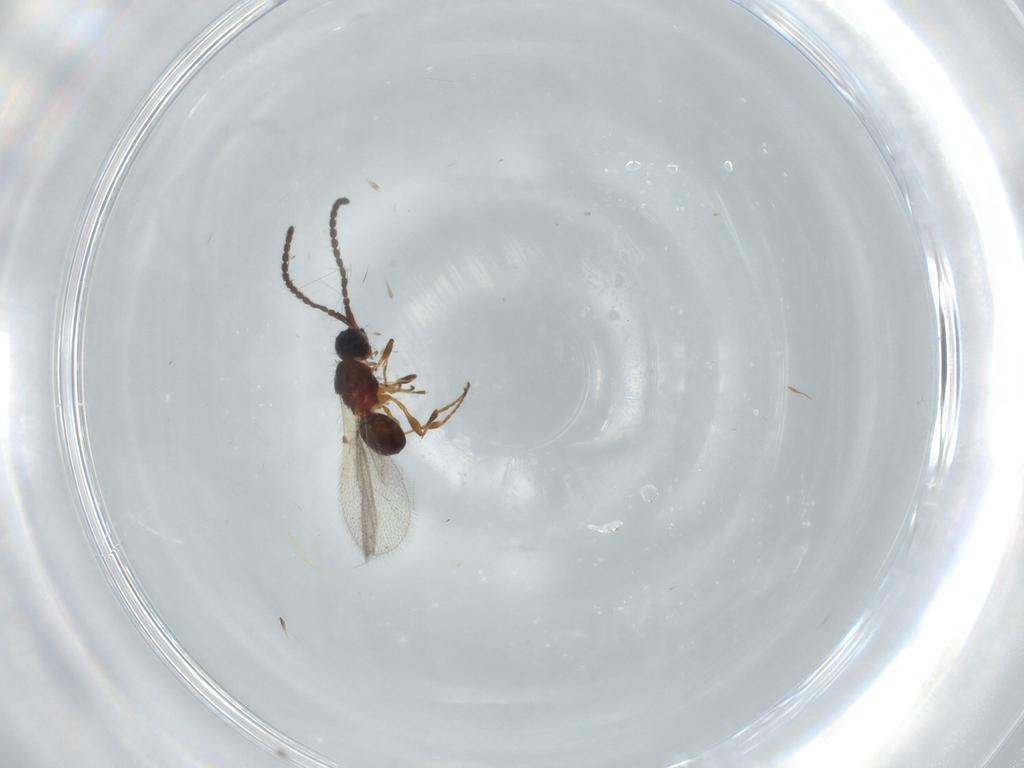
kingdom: Animalia
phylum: Arthropoda
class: Insecta
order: Hymenoptera
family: Diapriidae
